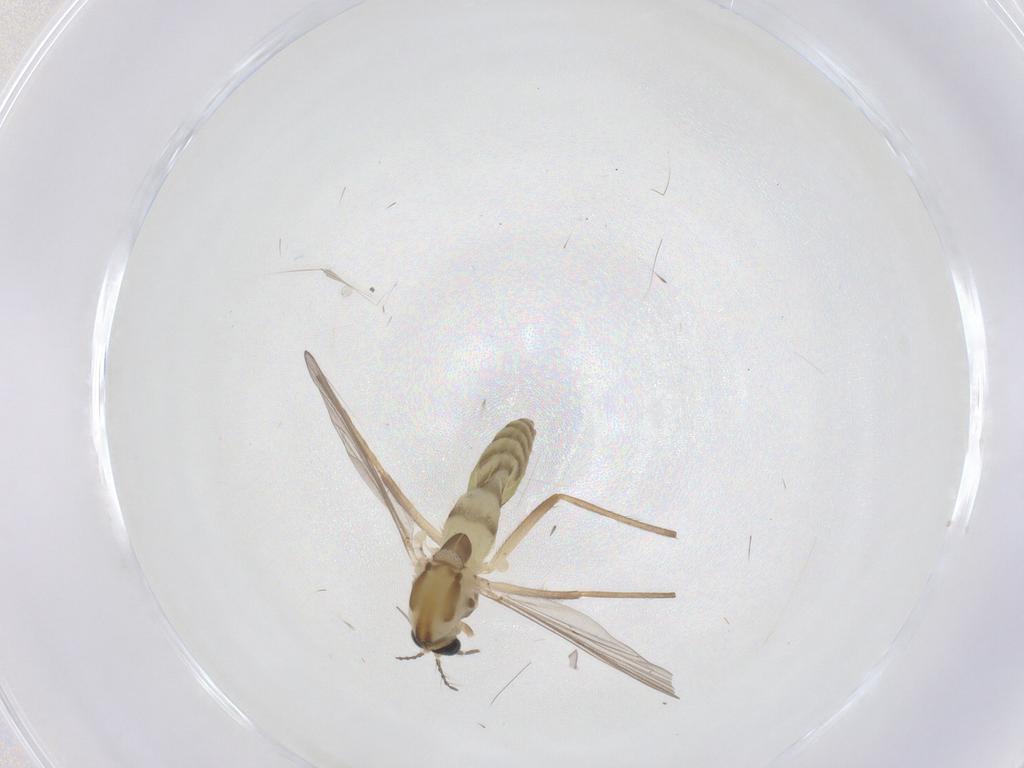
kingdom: Animalia
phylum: Arthropoda
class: Insecta
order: Diptera
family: Chironomidae
